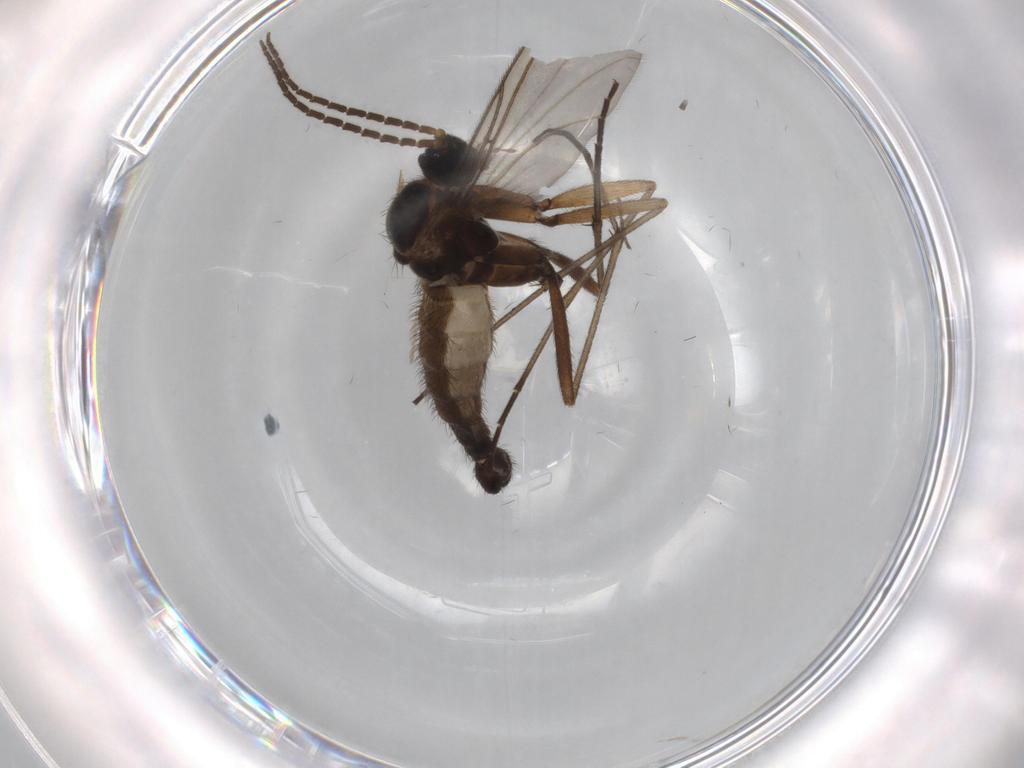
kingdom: Animalia
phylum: Arthropoda
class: Insecta
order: Diptera
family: Sciaridae
